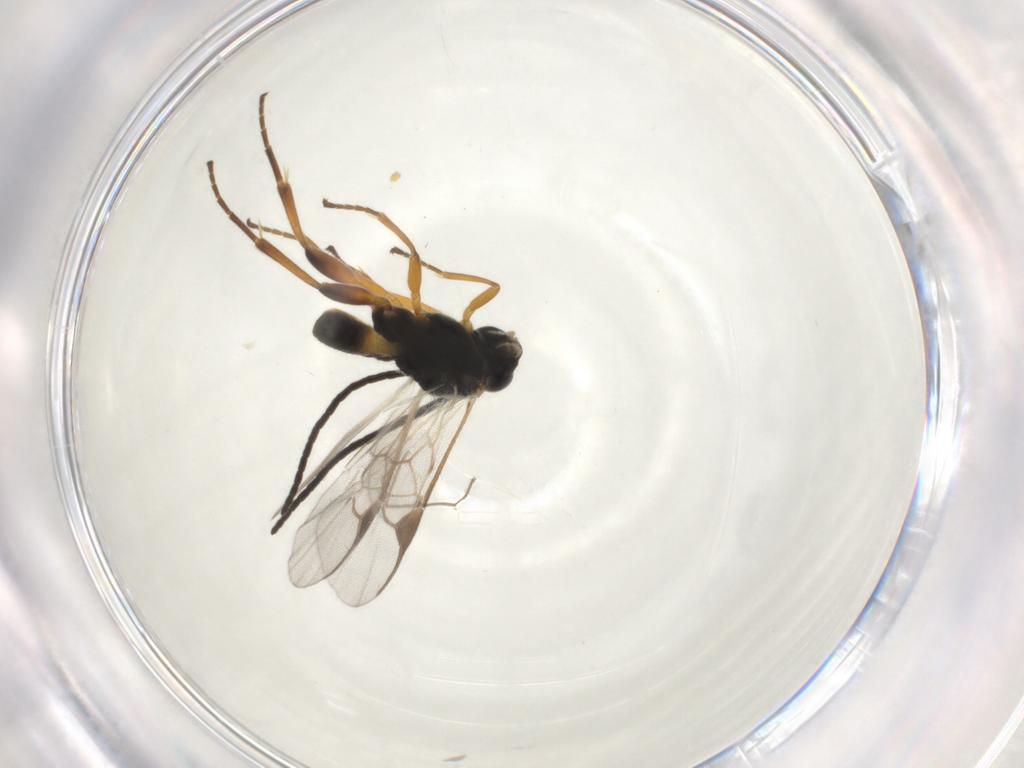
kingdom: Animalia
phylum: Arthropoda
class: Insecta
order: Hymenoptera
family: Braconidae
